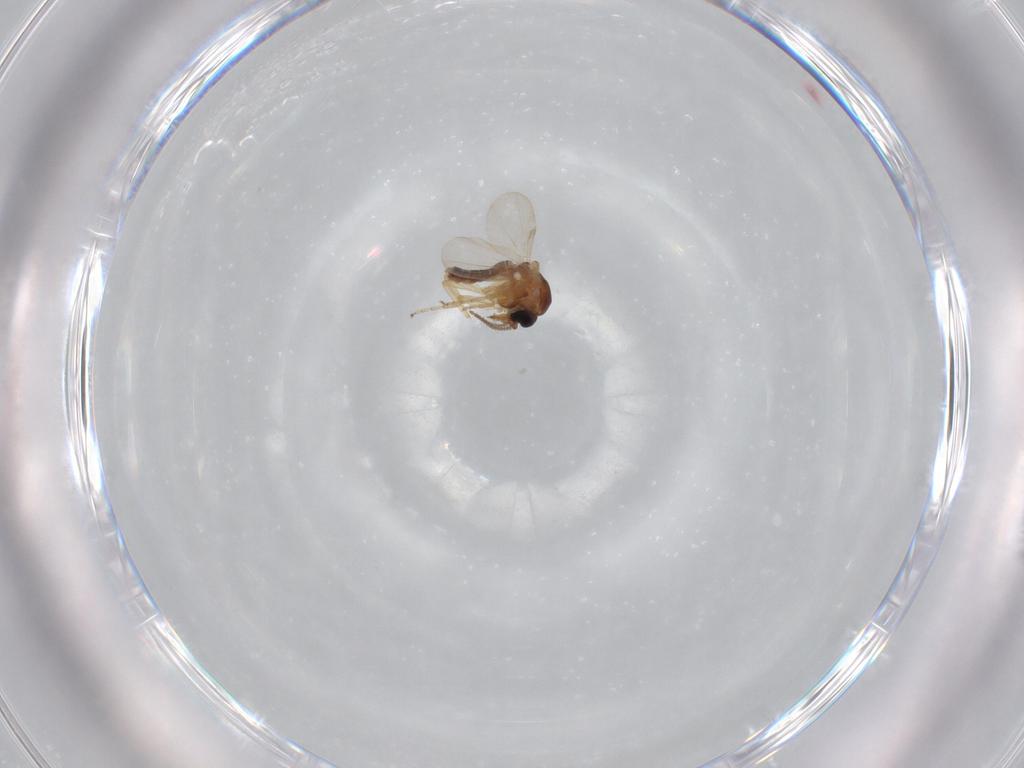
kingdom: Animalia
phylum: Arthropoda
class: Insecta
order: Diptera
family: Ceratopogonidae
